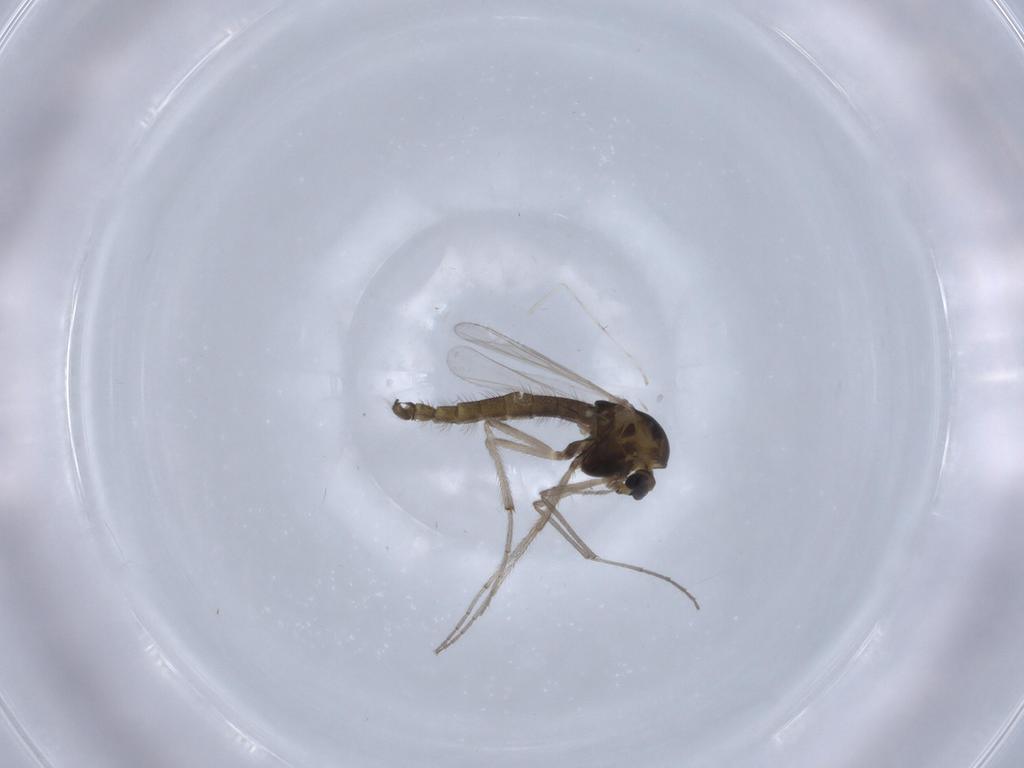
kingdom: Animalia
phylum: Arthropoda
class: Insecta
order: Diptera
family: Chironomidae
